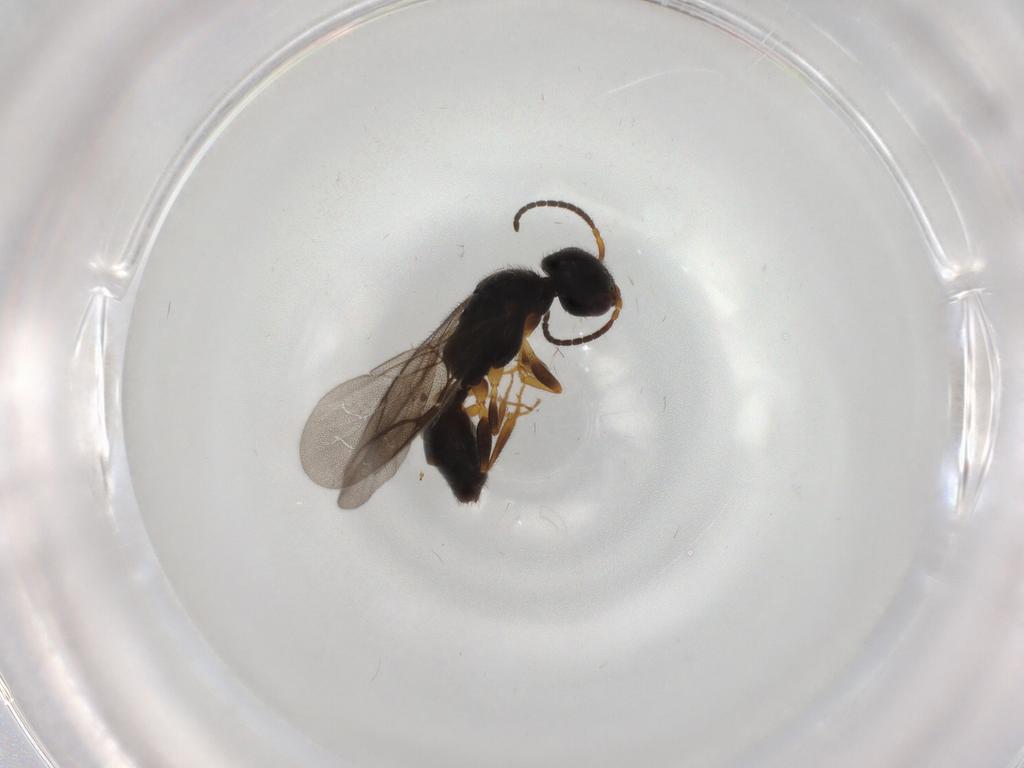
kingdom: Animalia
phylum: Arthropoda
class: Insecta
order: Hymenoptera
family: Bethylidae
